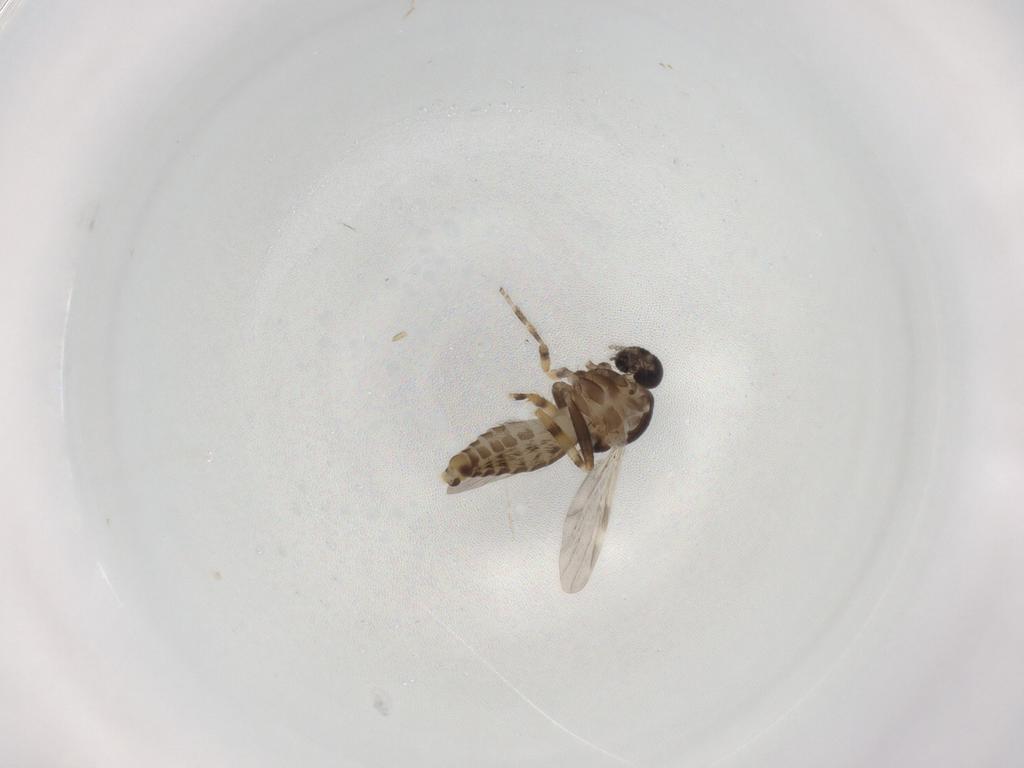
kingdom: Animalia
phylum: Arthropoda
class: Insecta
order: Diptera
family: Ceratopogonidae
